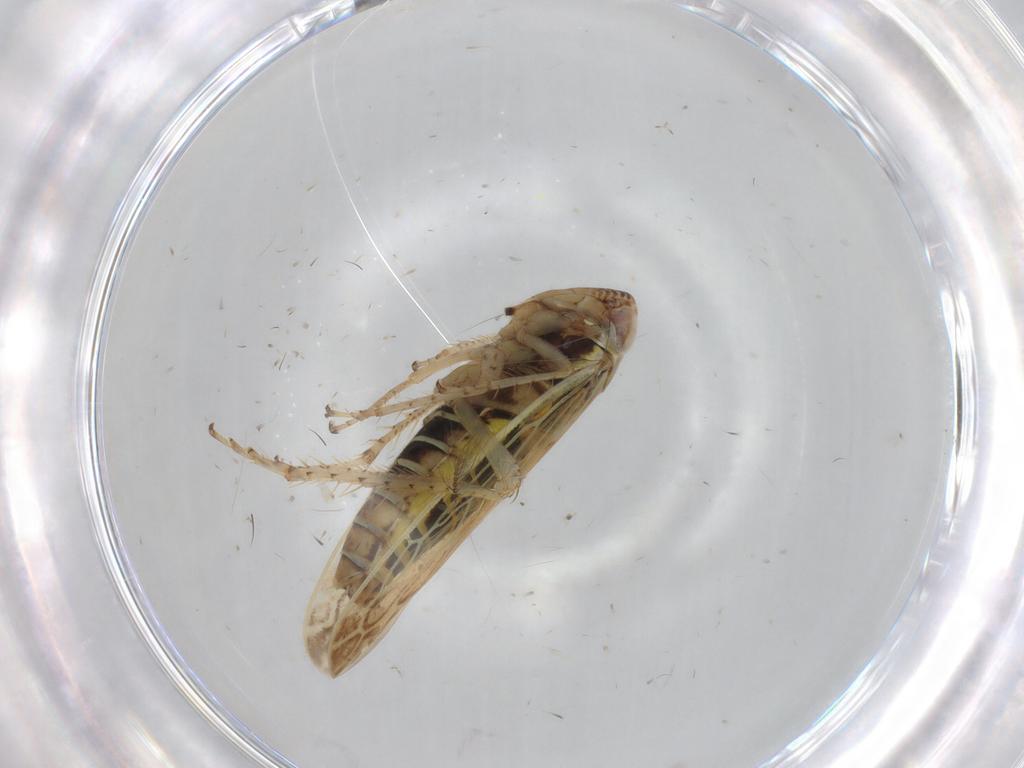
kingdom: Animalia
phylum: Arthropoda
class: Insecta
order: Hemiptera
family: Cicadellidae
